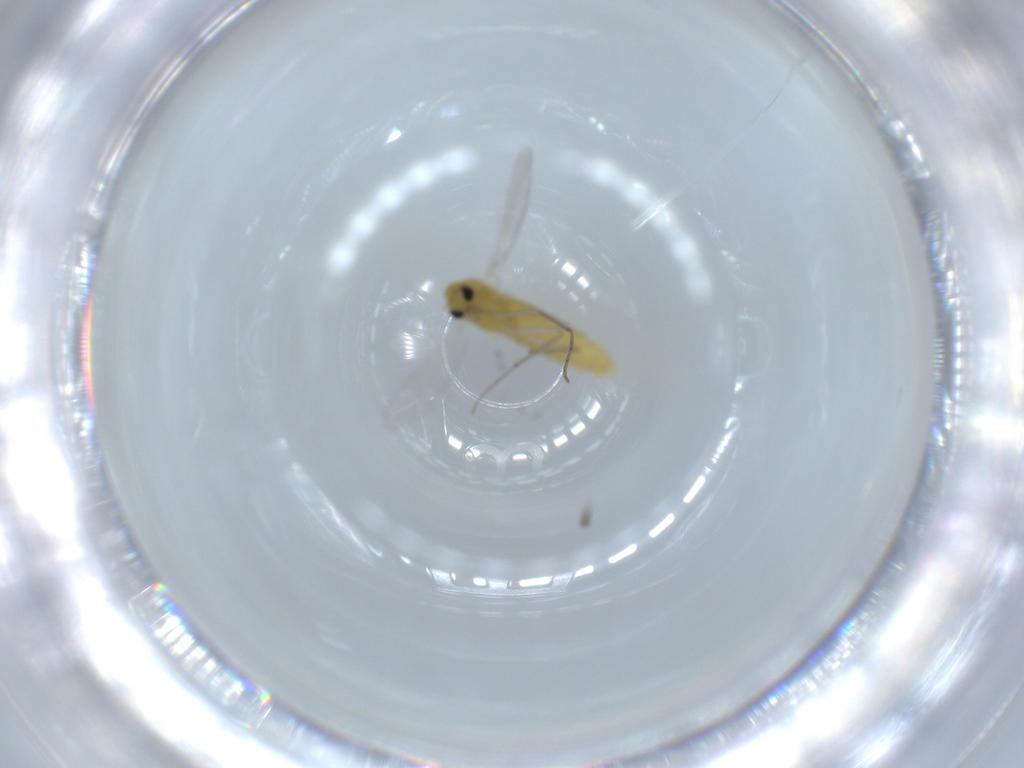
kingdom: Animalia
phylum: Arthropoda
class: Insecta
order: Diptera
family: Chironomidae
